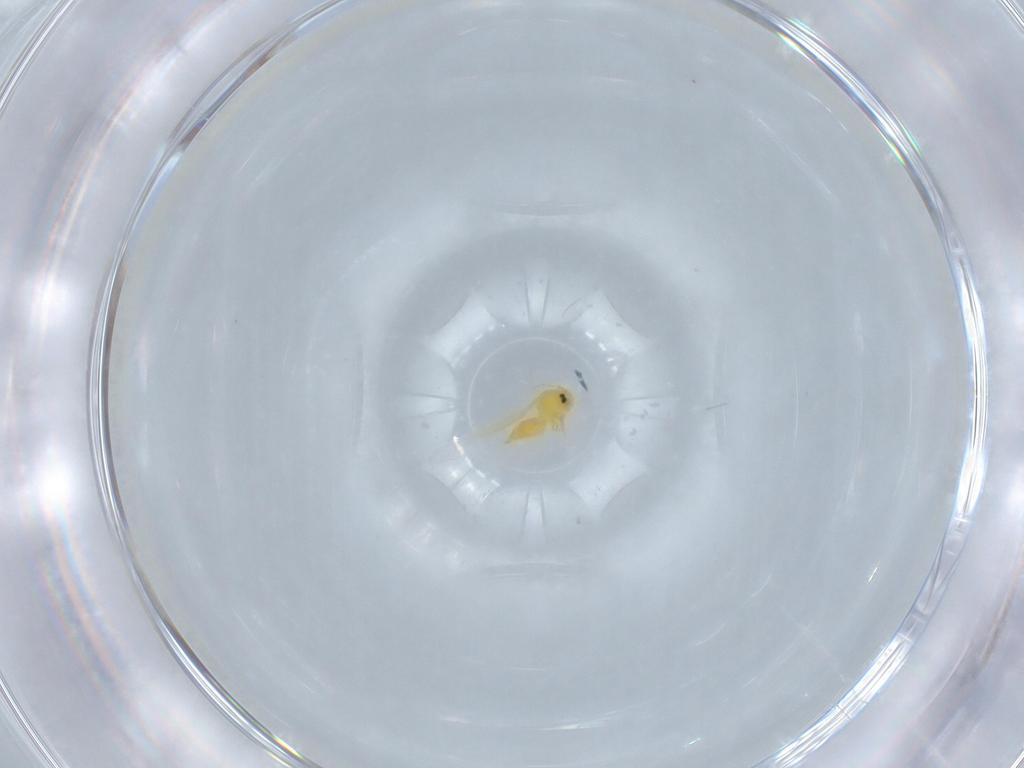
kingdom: Animalia
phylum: Arthropoda
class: Insecta
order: Hemiptera
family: Aleyrodidae
